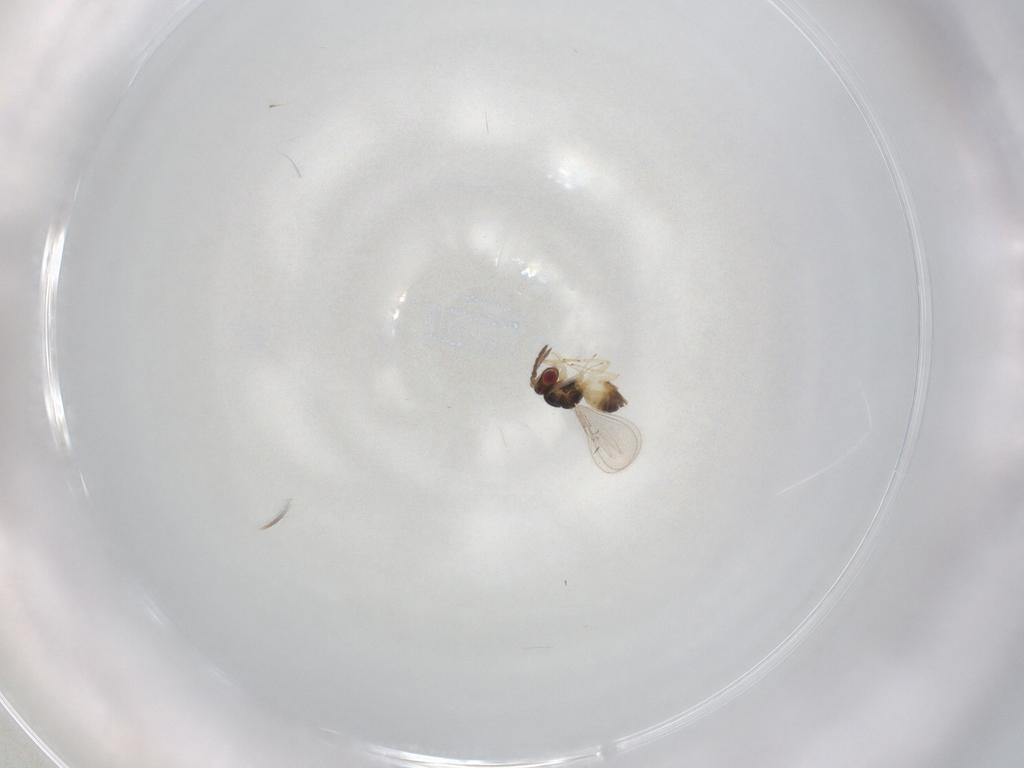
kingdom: Animalia
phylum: Arthropoda
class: Insecta
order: Hymenoptera
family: Eulophidae
